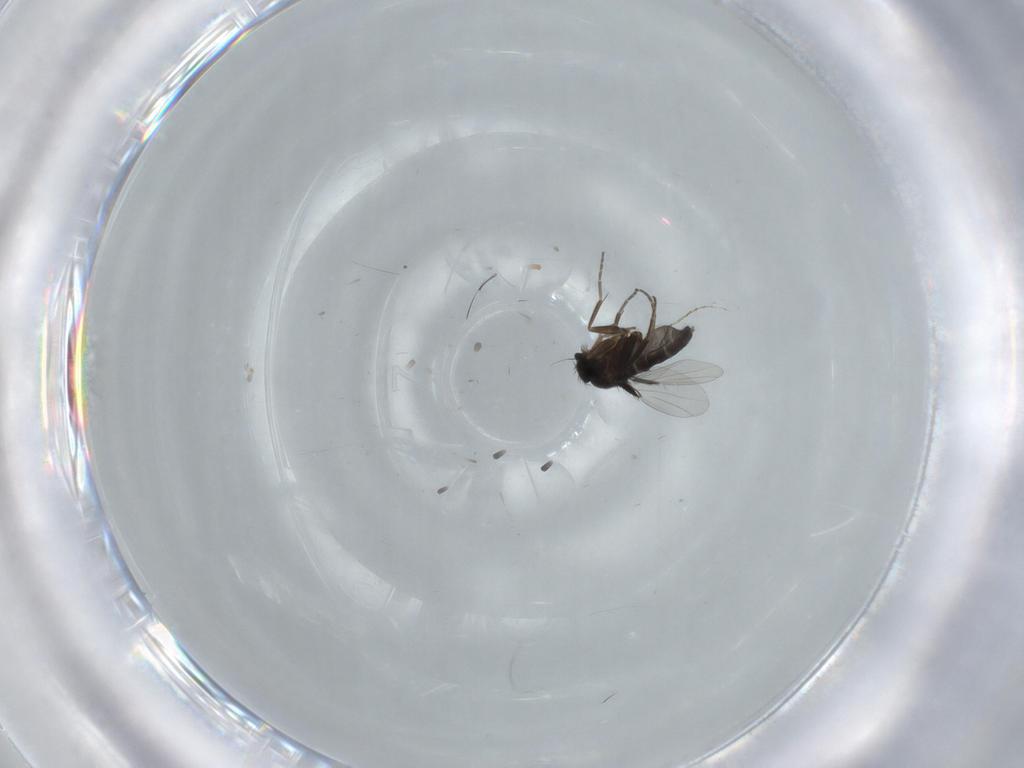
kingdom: Animalia
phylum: Arthropoda
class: Insecta
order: Diptera
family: Phoridae
